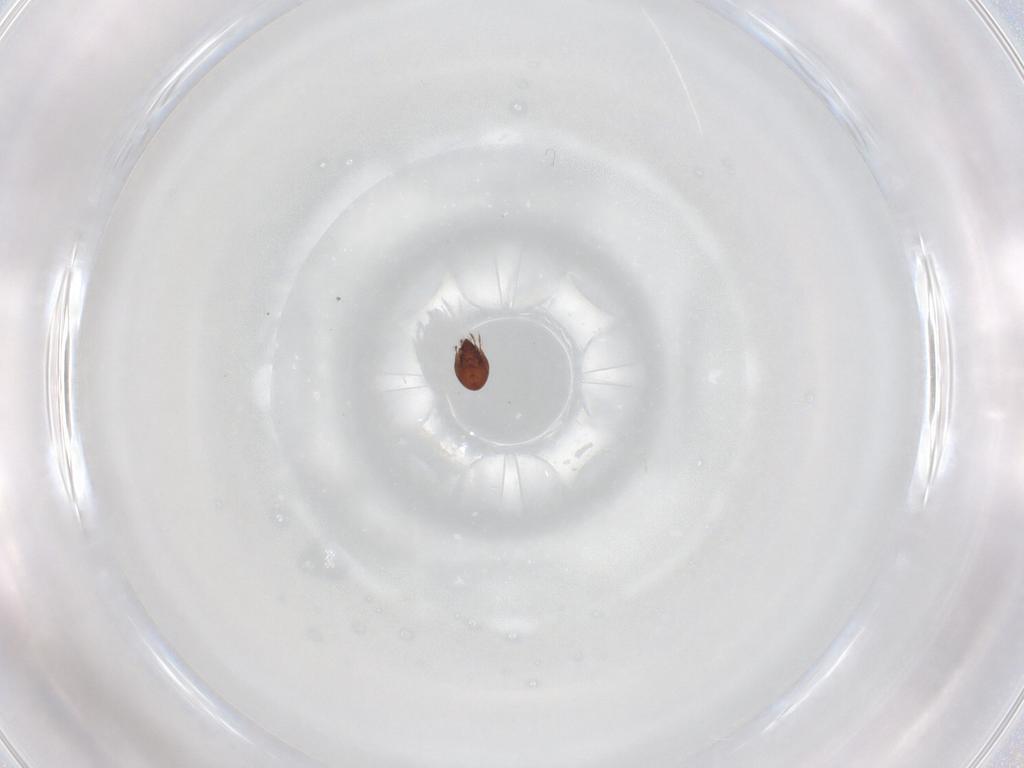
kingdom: Animalia
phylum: Arthropoda
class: Arachnida
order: Sarcoptiformes
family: Ceratozetidae
